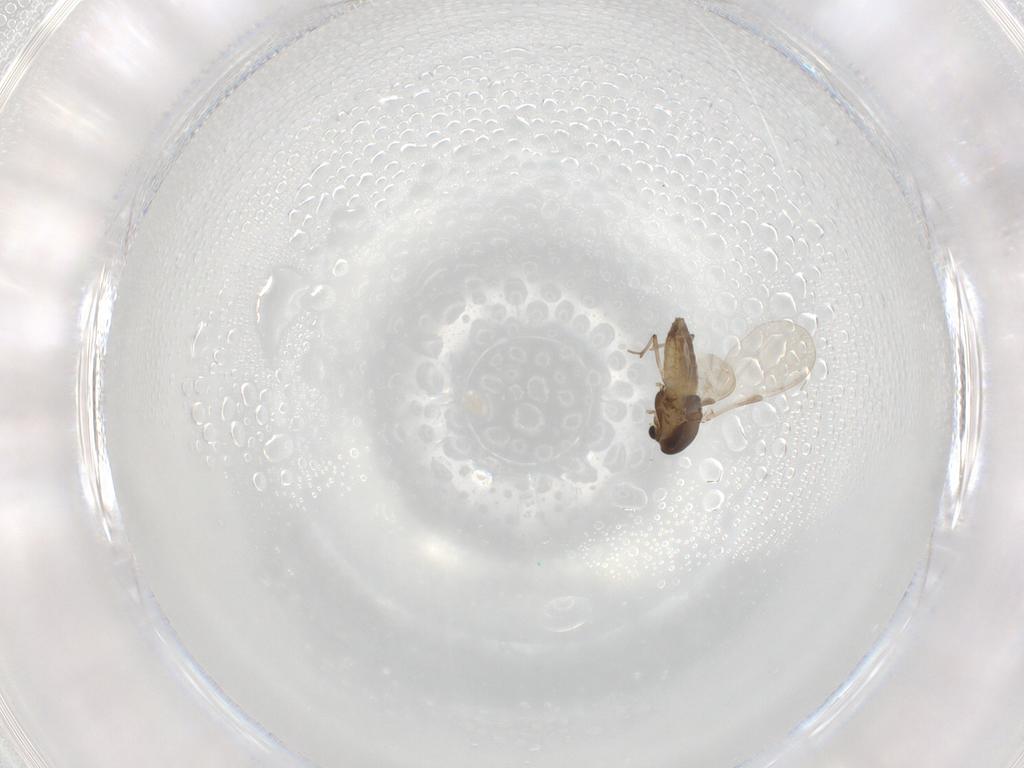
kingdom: Animalia
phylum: Arthropoda
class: Insecta
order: Diptera
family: Chironomidae
